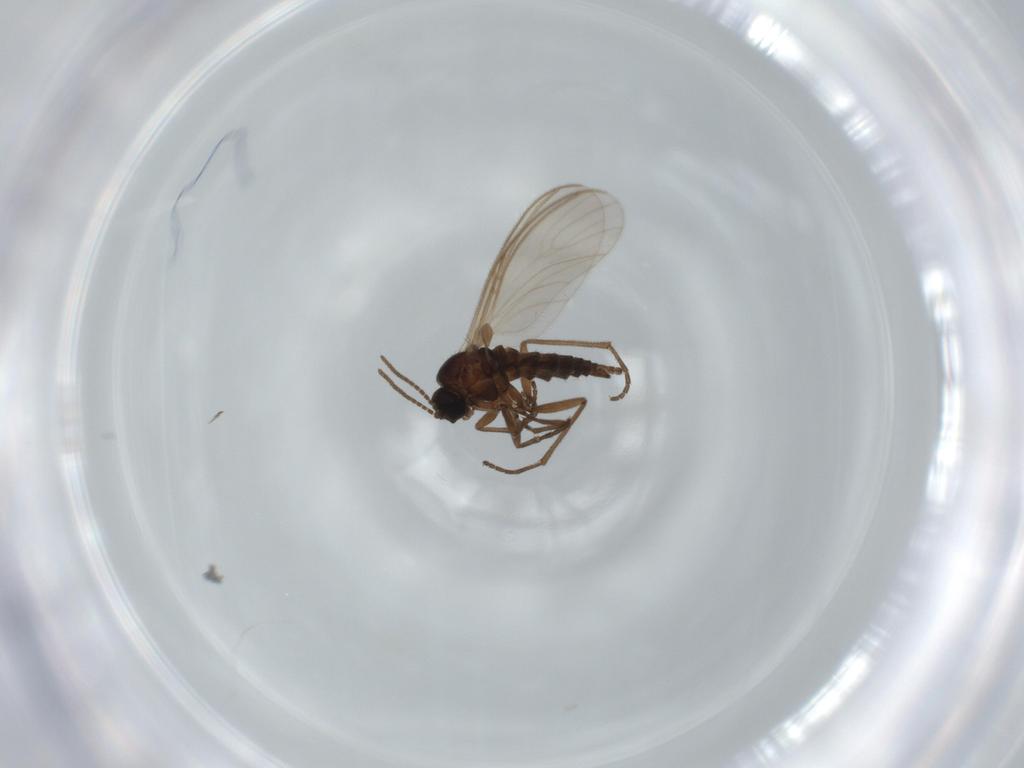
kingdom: Animalia
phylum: Arthropoda
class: Insecta
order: Diptera
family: Sciaridae
